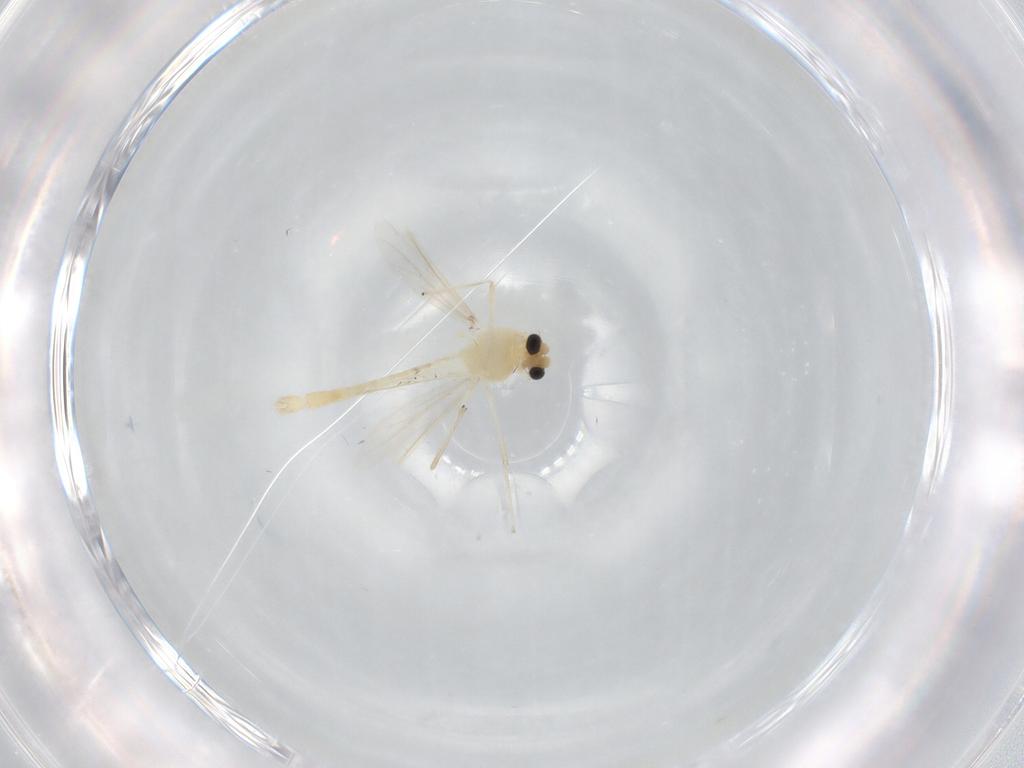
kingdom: Animalia
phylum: Arthropoda
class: Insecta
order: Diptera
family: Chironomidae
